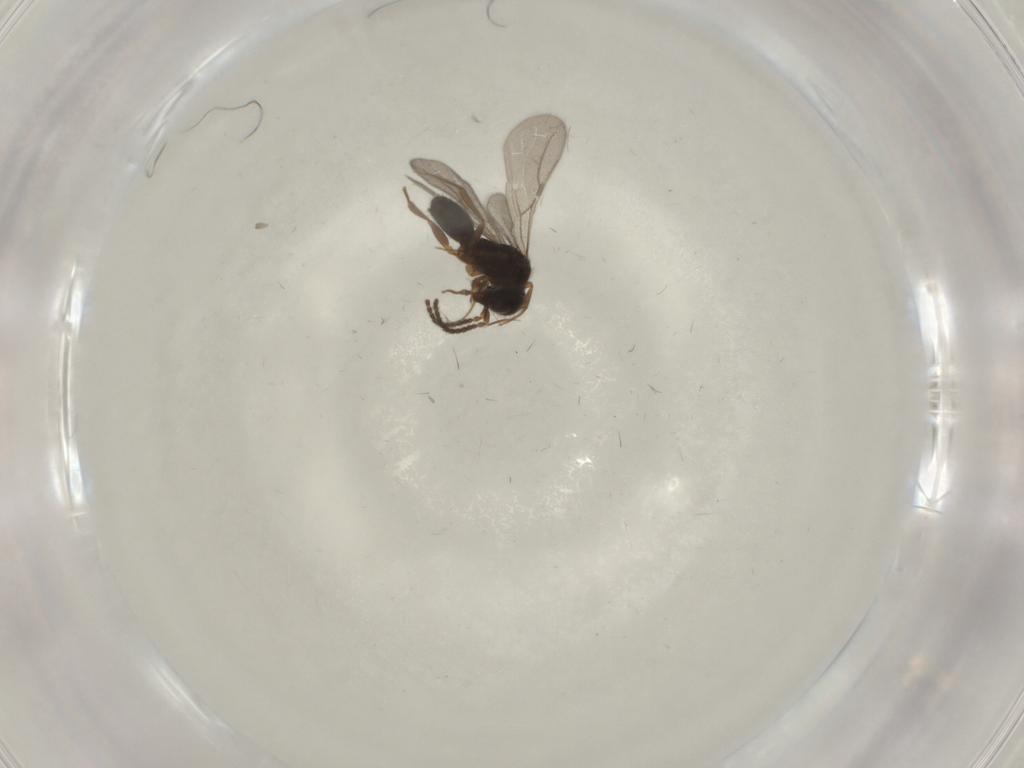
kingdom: Animalia
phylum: Arthropoda
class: Insecta
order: Hymenoptera
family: Bethylidae
